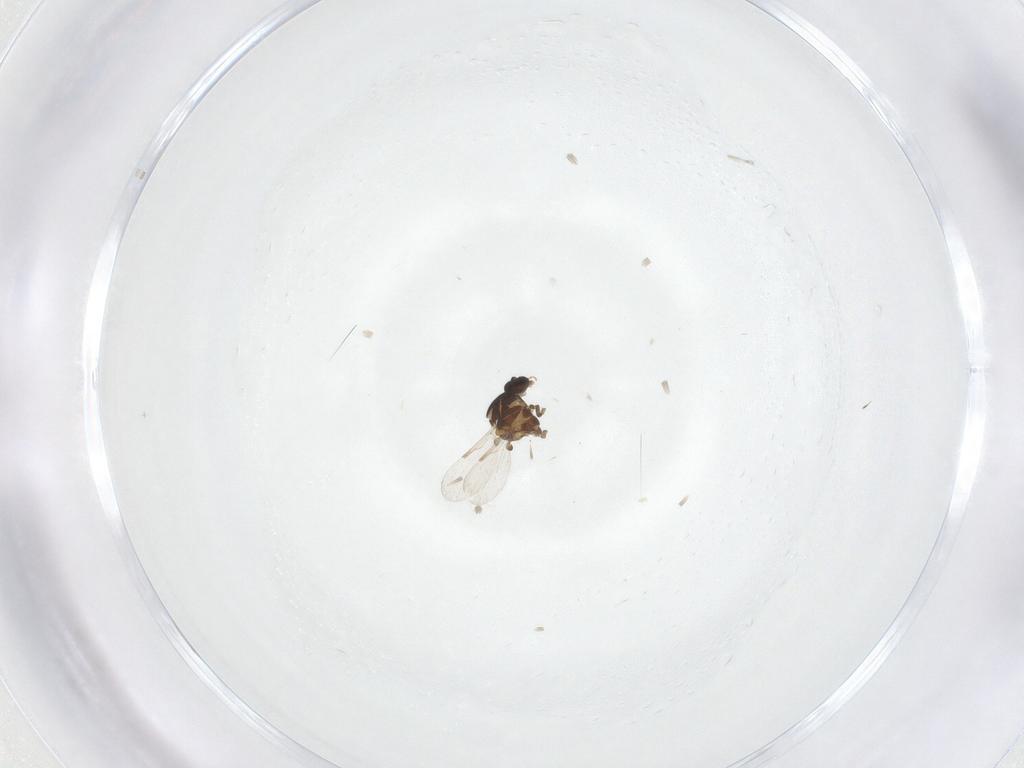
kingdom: Animalia
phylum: Arthropoda
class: Insecta
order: Diptera
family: Ceratopogonidae
